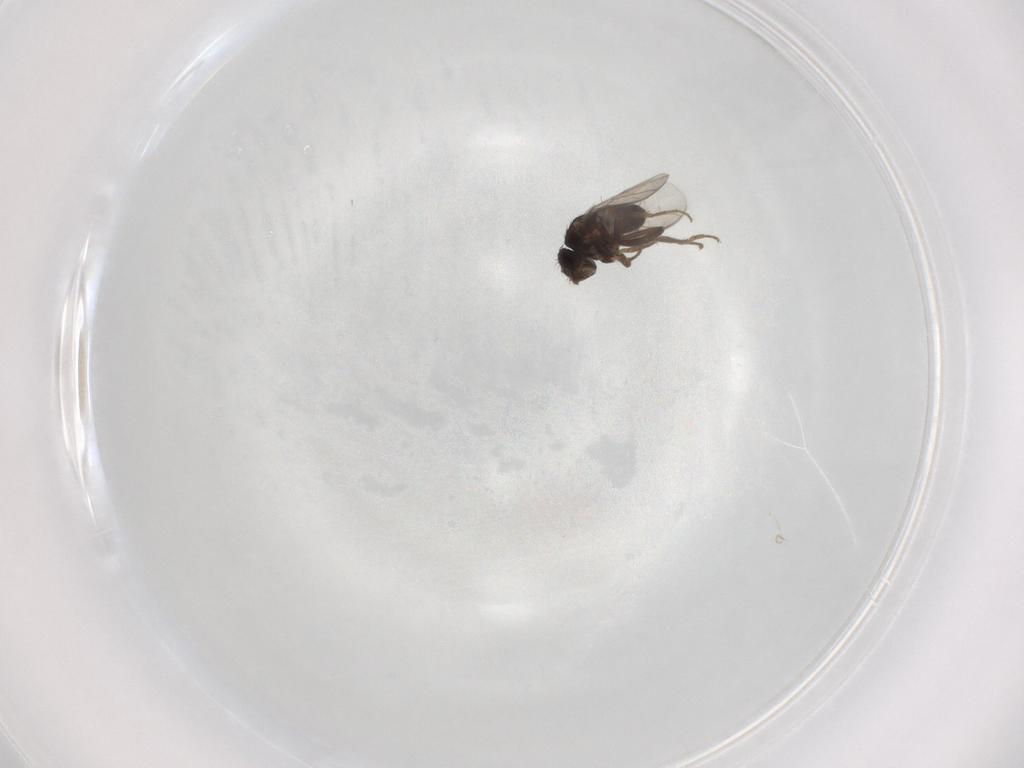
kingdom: Animalia
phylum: Arthropoda
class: Insecta
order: Diptera
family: Sphaeroceridae
